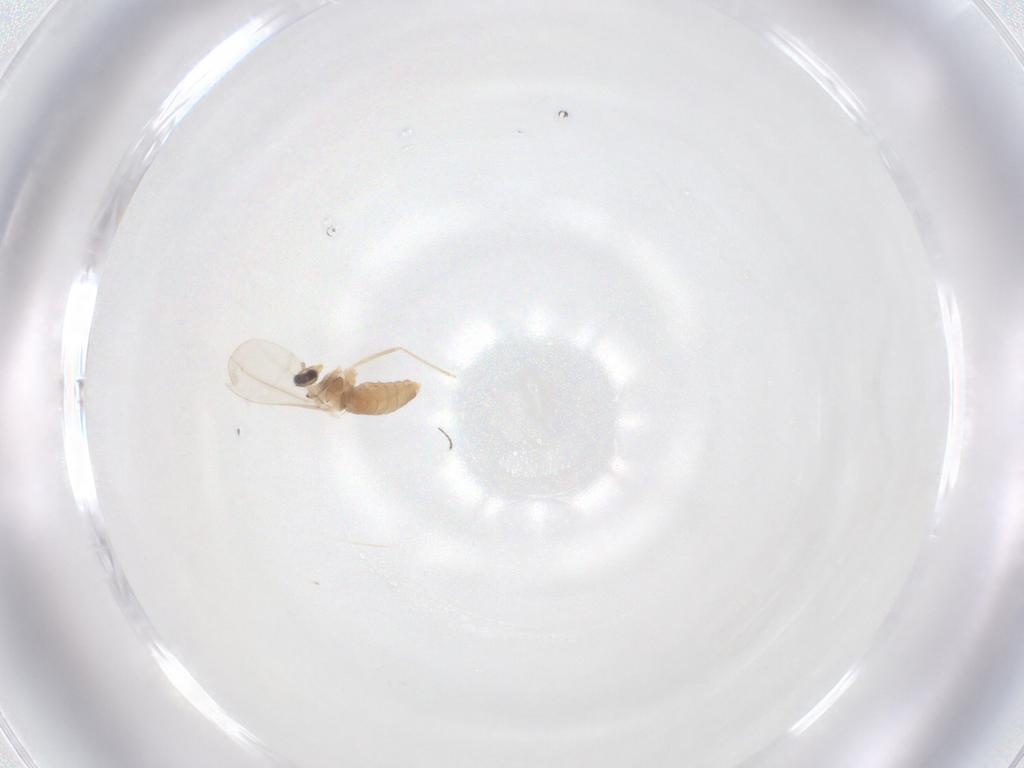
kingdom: Animalia
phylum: Arthropoda
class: Insecta
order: Diptera
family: Cecidomyiidae
